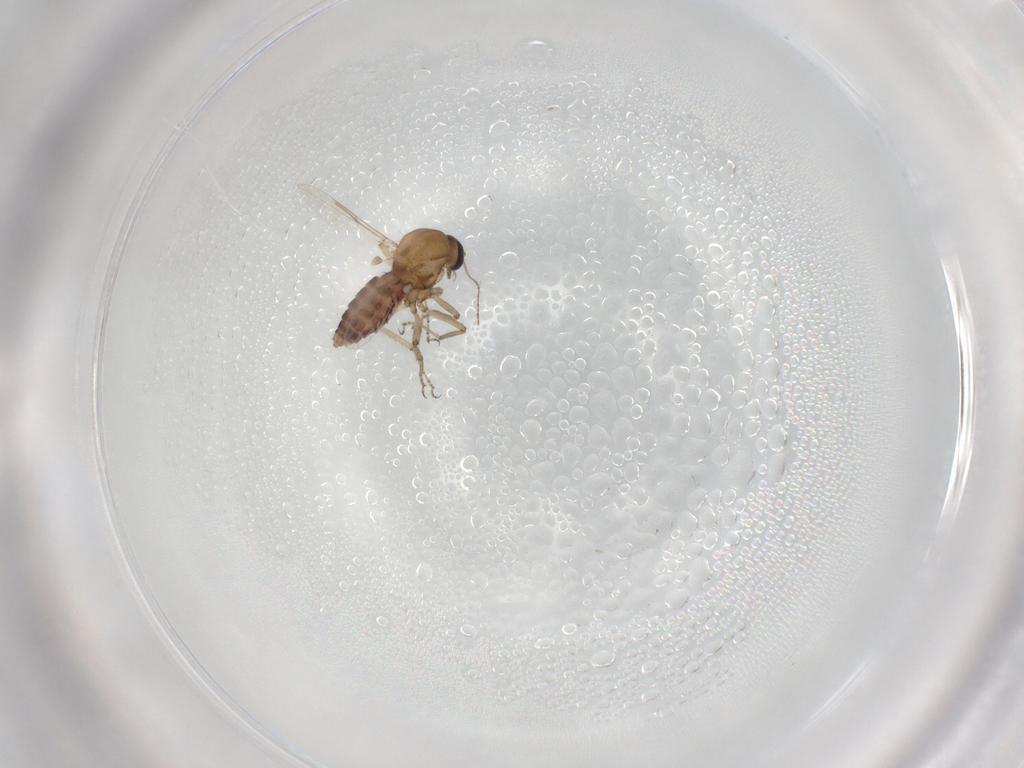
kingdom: Animalia
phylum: Arthropoda
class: Insecta
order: Diptera
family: Ceratopogonidae
